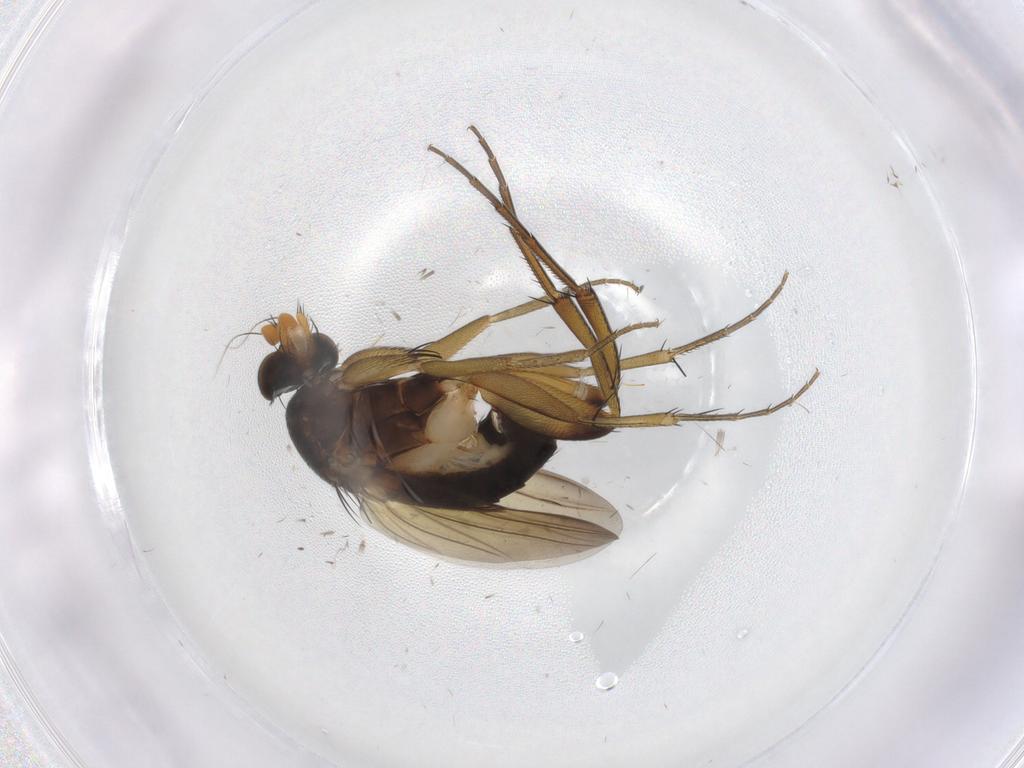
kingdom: Animalia
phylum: Arthropoda
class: Insecta
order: Diptera
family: Phoridae
